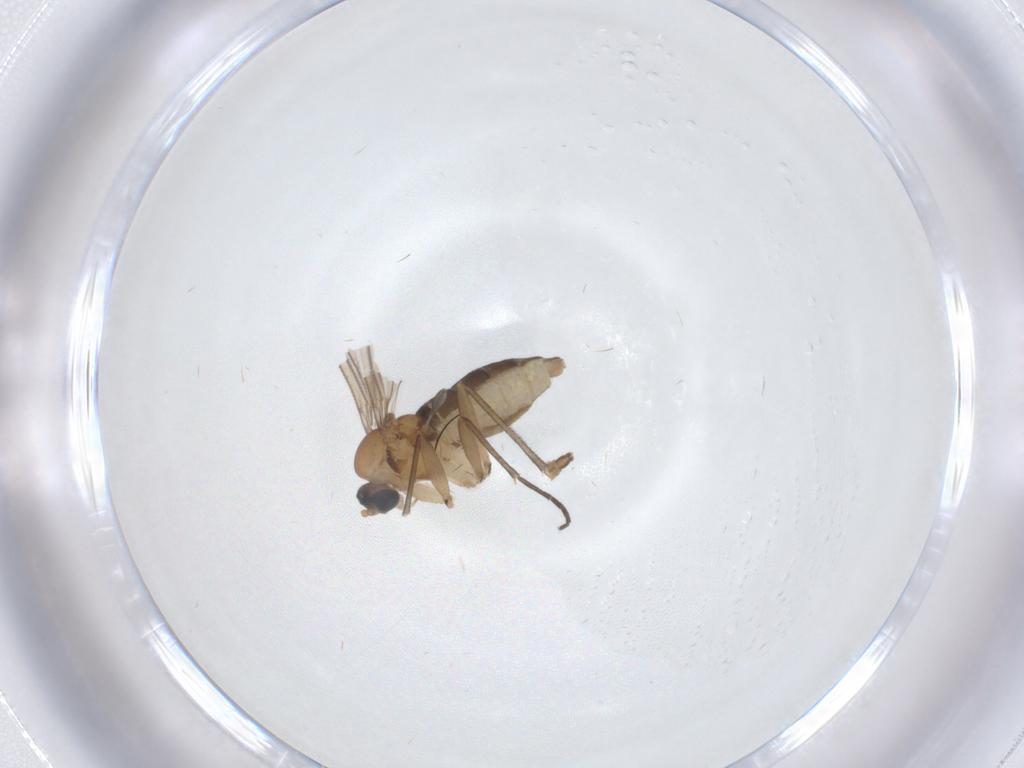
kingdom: Animalia
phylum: Arthropoda
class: Insecta
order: Diptera
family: Sciaridae
